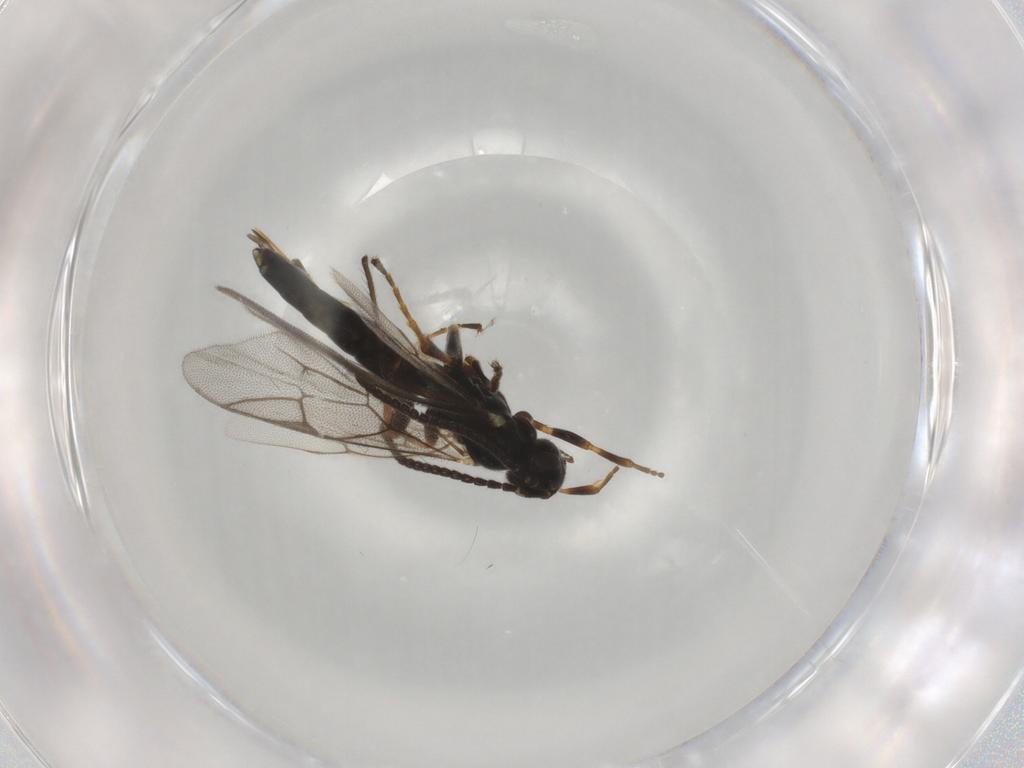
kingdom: Animalia
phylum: Arthropoda
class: Insecta
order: Hymenoptera
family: Ichneumonidae
